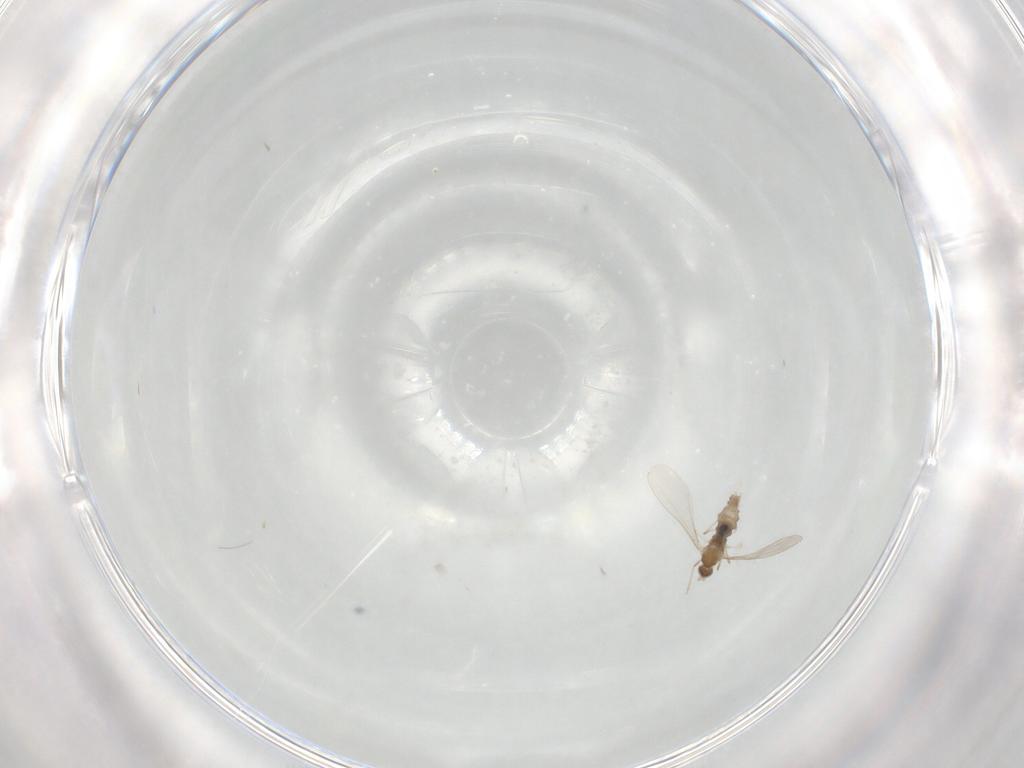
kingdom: Animalia
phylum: Arthropoda
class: Insecta
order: Diptera
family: Cecidomyiidae
